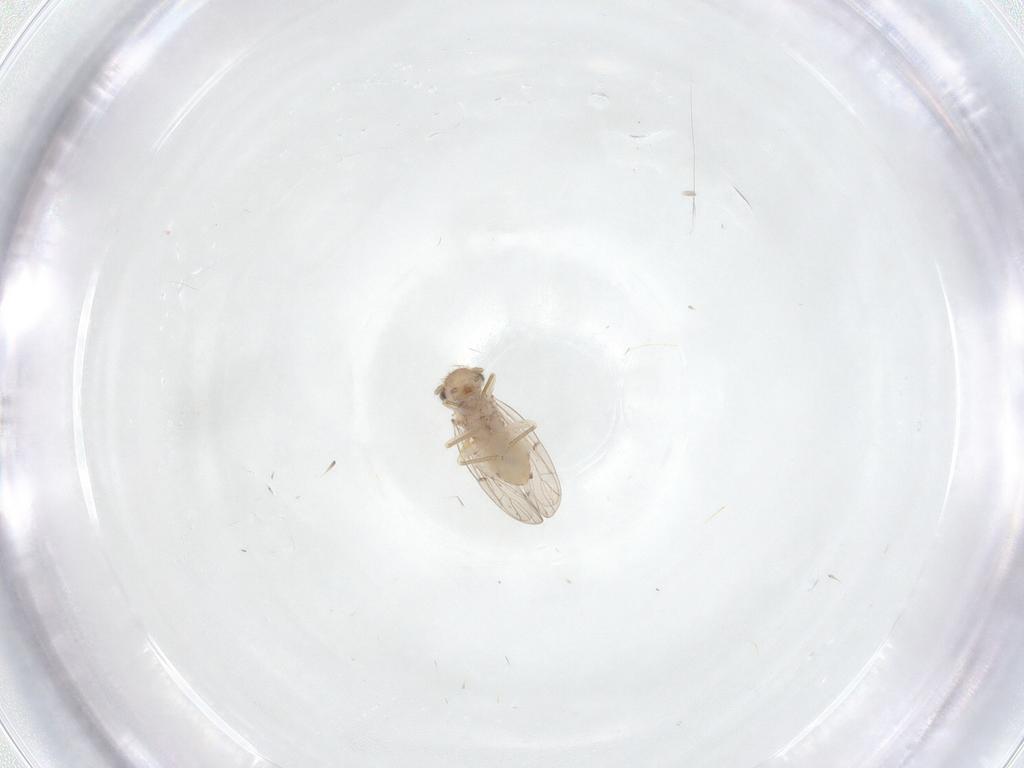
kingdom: Animalia
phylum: Arthropoda
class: Insecta
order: Psocodea
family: Ectopsocidae
